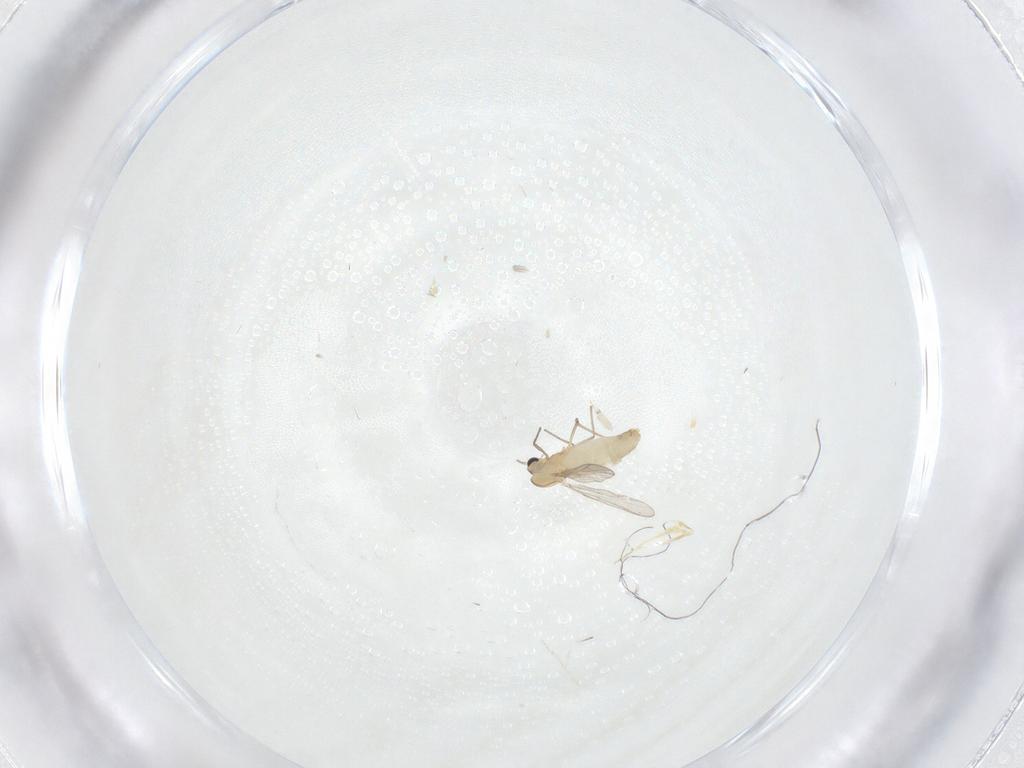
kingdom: Animalia
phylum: Arthropoda
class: Insecta
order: Diptera
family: Chironomidae
